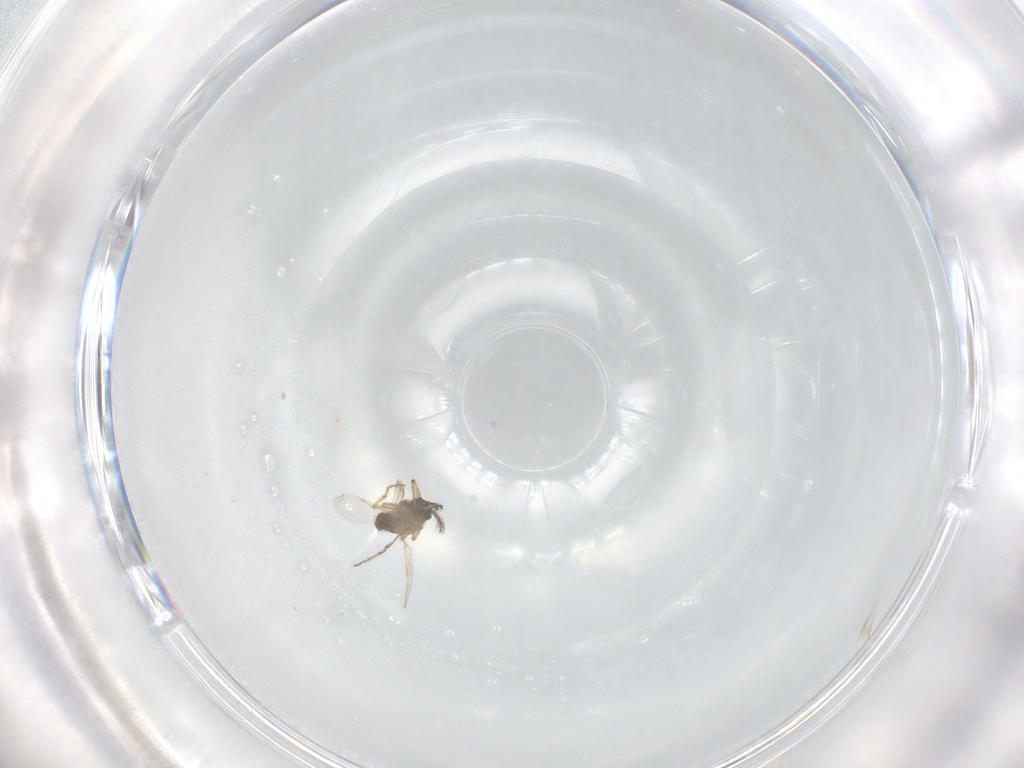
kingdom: Animalia
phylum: Arthropoda
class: Insecta
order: Diptera
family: Ceratopogonidae
